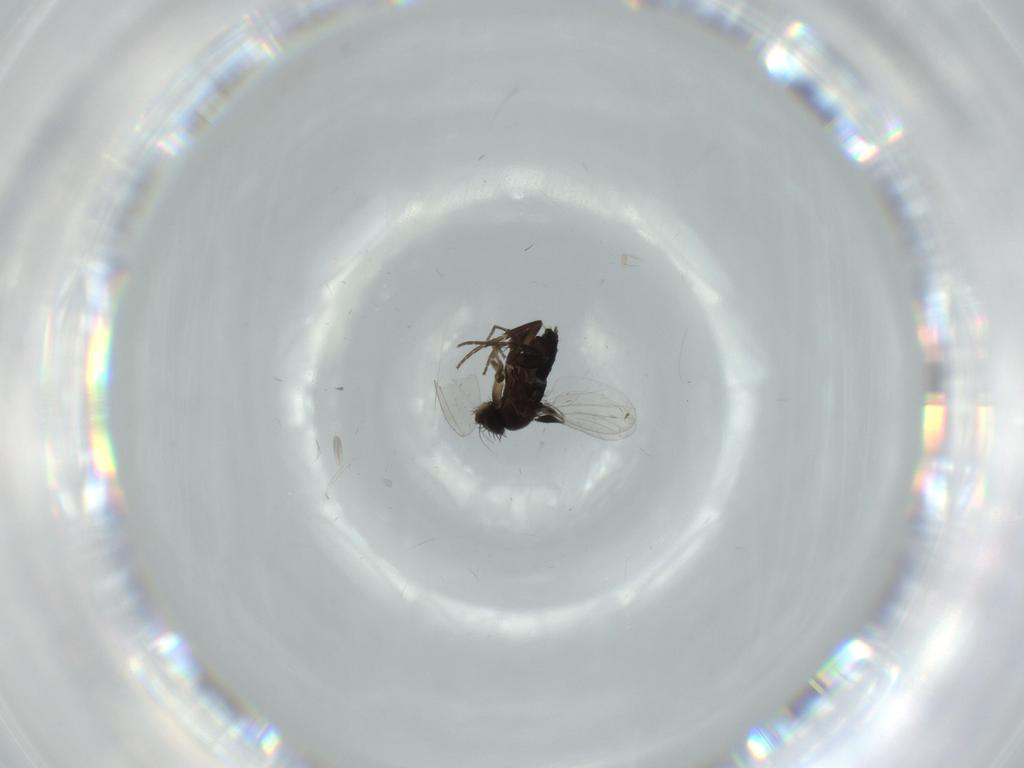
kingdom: Animalia
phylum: Arthropoda
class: Insecta
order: Diptera
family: Phoridae
